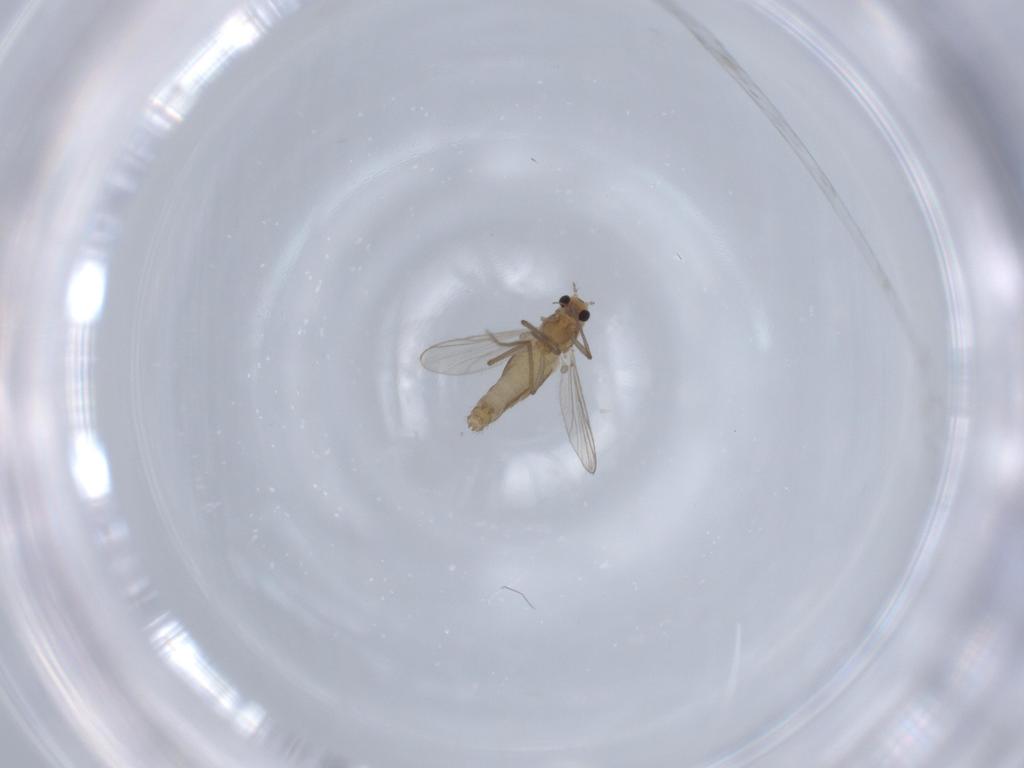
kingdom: Animalia
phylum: Arthropoda
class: Insecta
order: Diptera
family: Chironomidae
